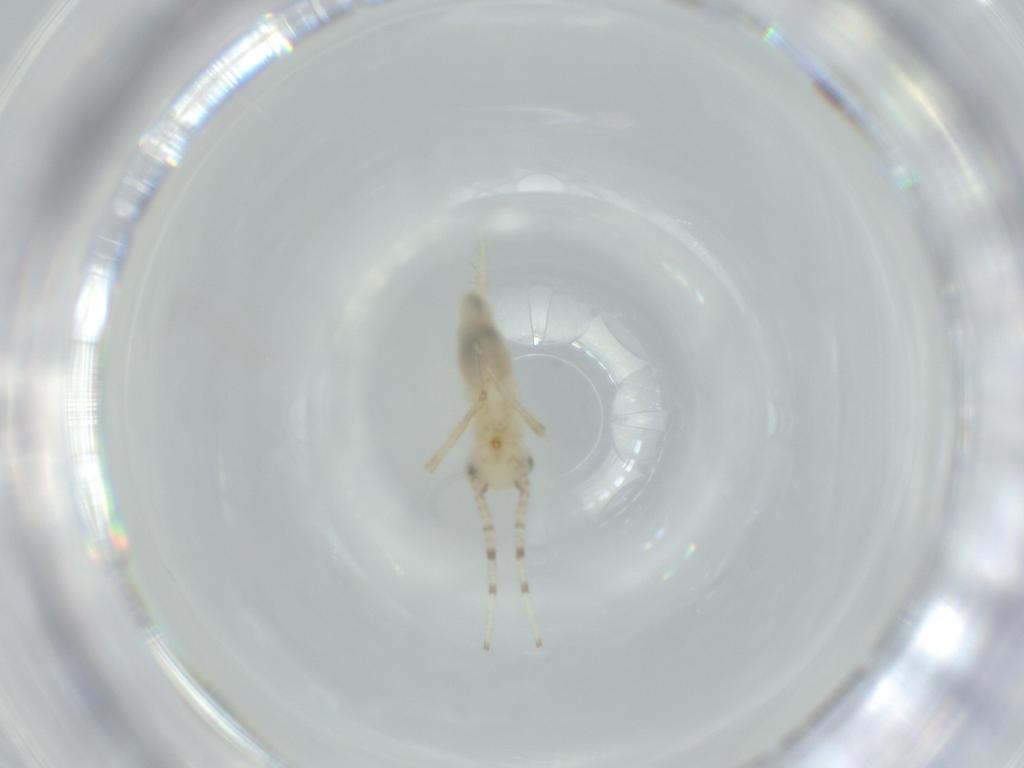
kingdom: Animalia
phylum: Arthropoda
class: Insecta
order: Orthoptera
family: Trigonidiidae
